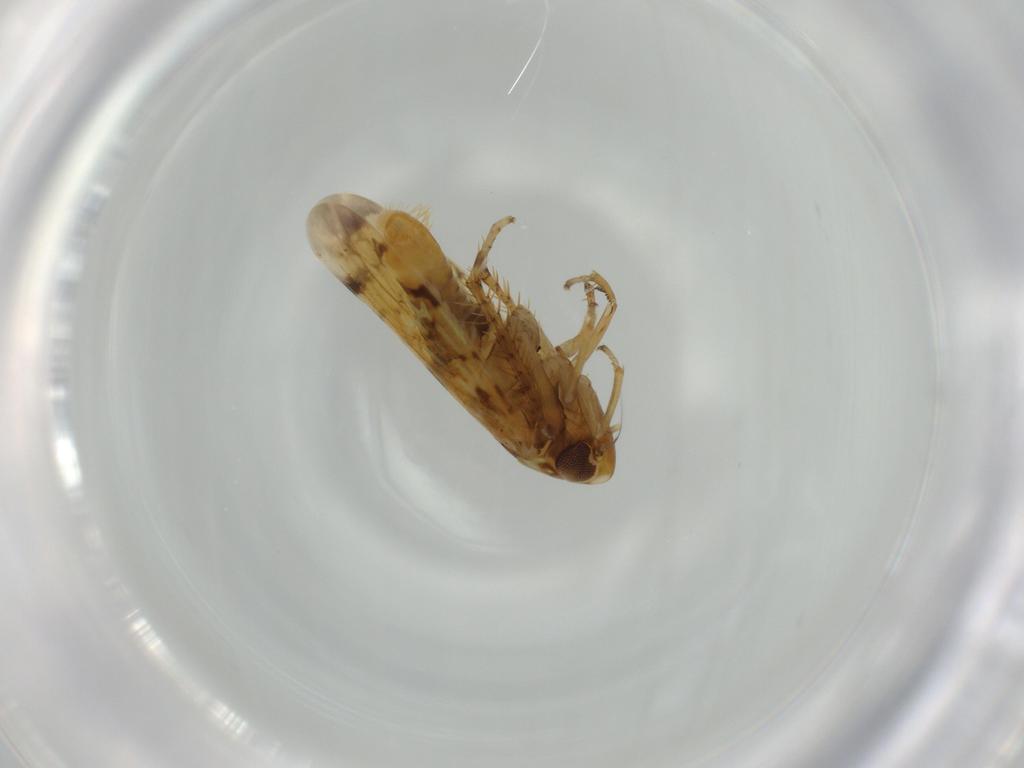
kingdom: Animalia
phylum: Arthropoda
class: Insecta
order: Hemiptera
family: Cicadellidae
